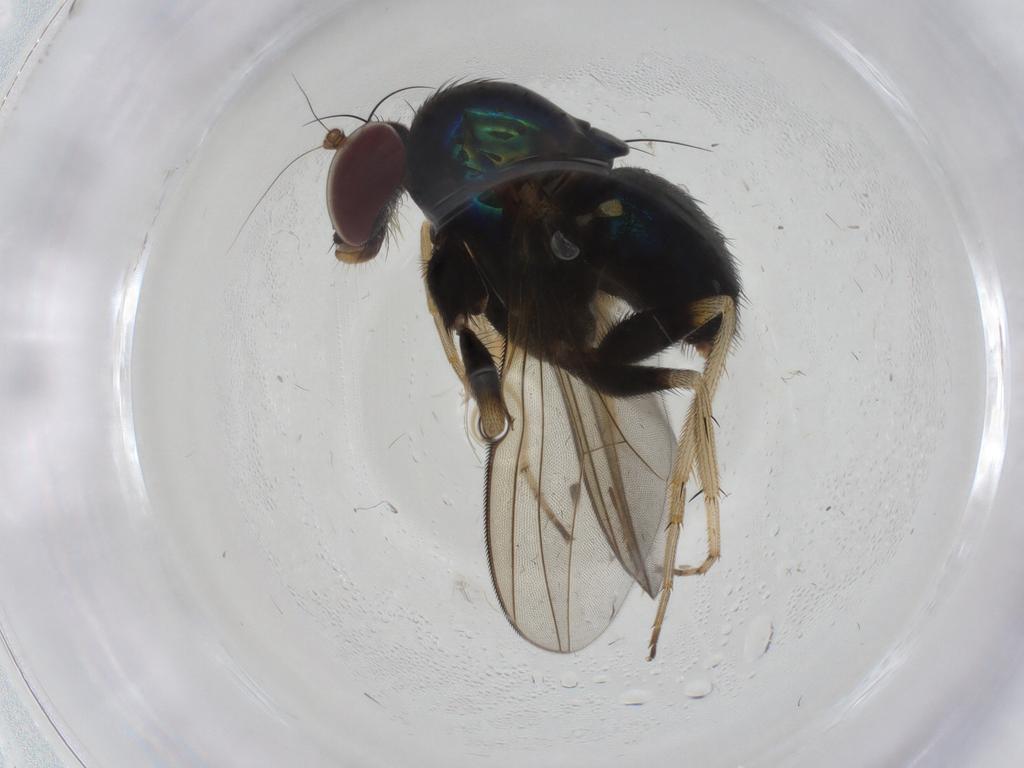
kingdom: Animalia
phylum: Arthropoda
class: Insecta
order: Diptera
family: Dolichopodidae
